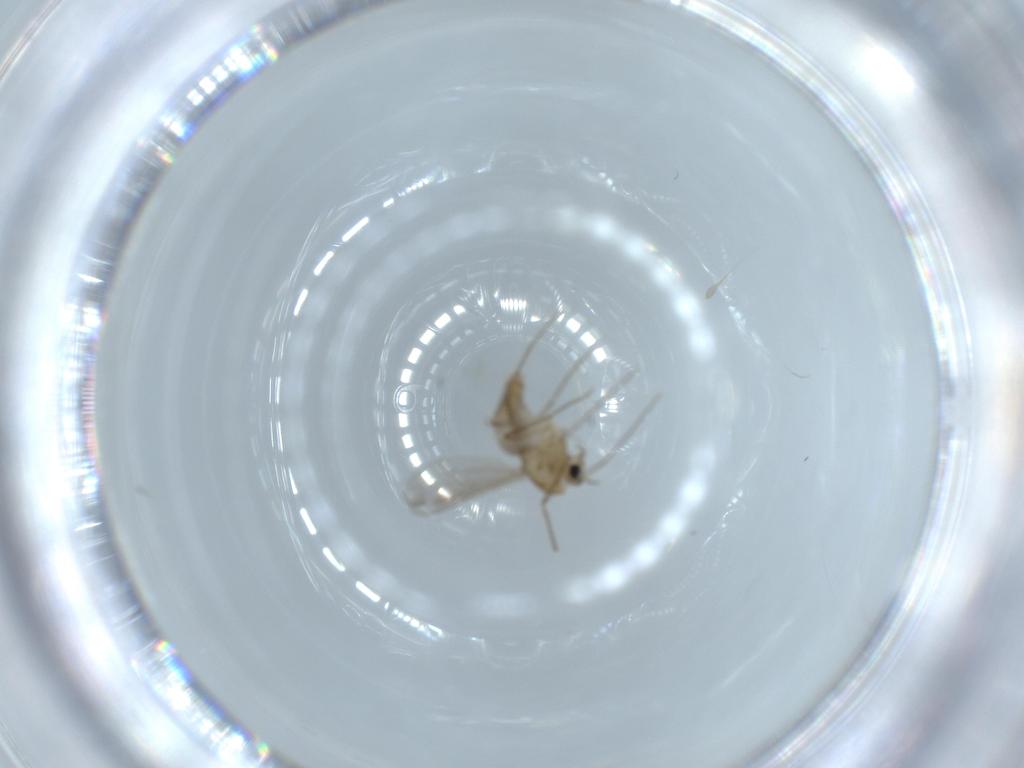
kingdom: Animalia
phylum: Arthropoda
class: Insecta
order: Diptera
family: Chironomidae
